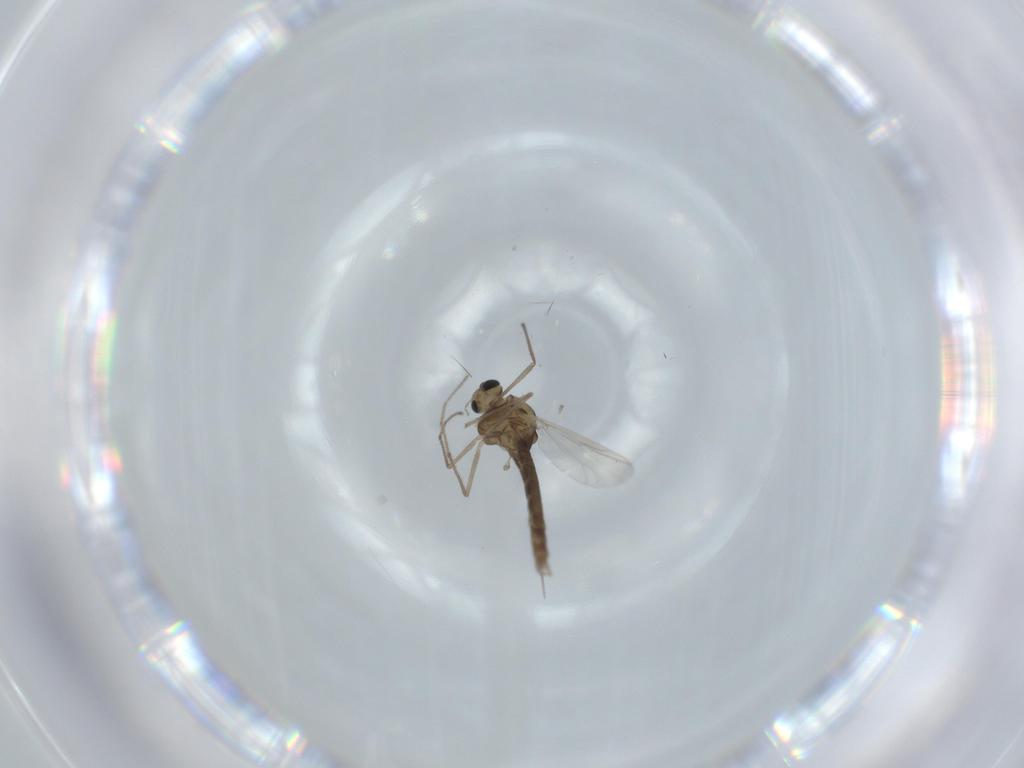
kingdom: Animalia
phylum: Arthropoda
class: Insecta
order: Diptera
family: Chironomidae
